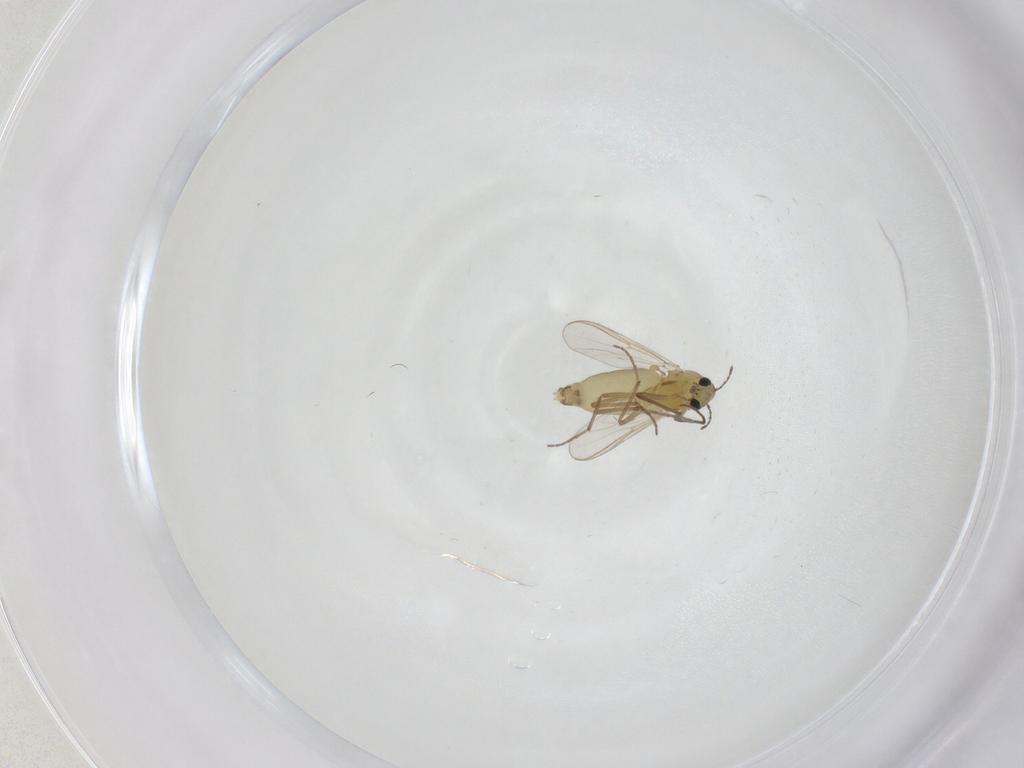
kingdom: Animalia
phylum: Arthropoda
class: Insecta
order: Diptera
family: Chironomidae
